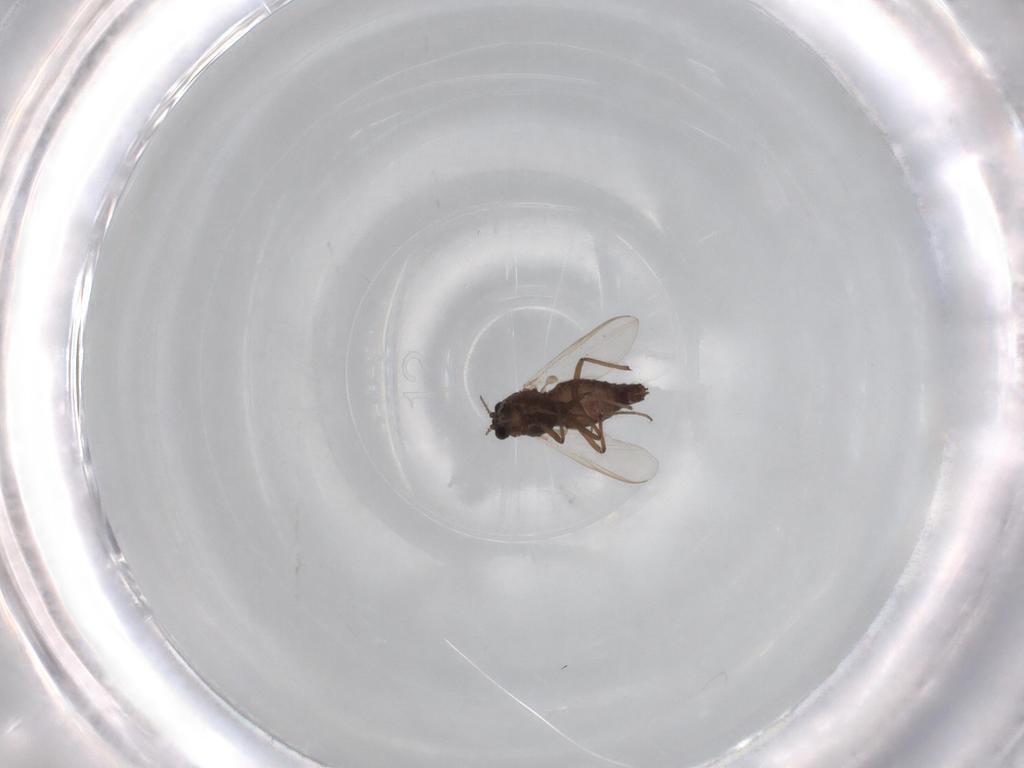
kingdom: Animalia
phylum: Arthropoda
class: Insecta
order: Diptera
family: Chironomidae
